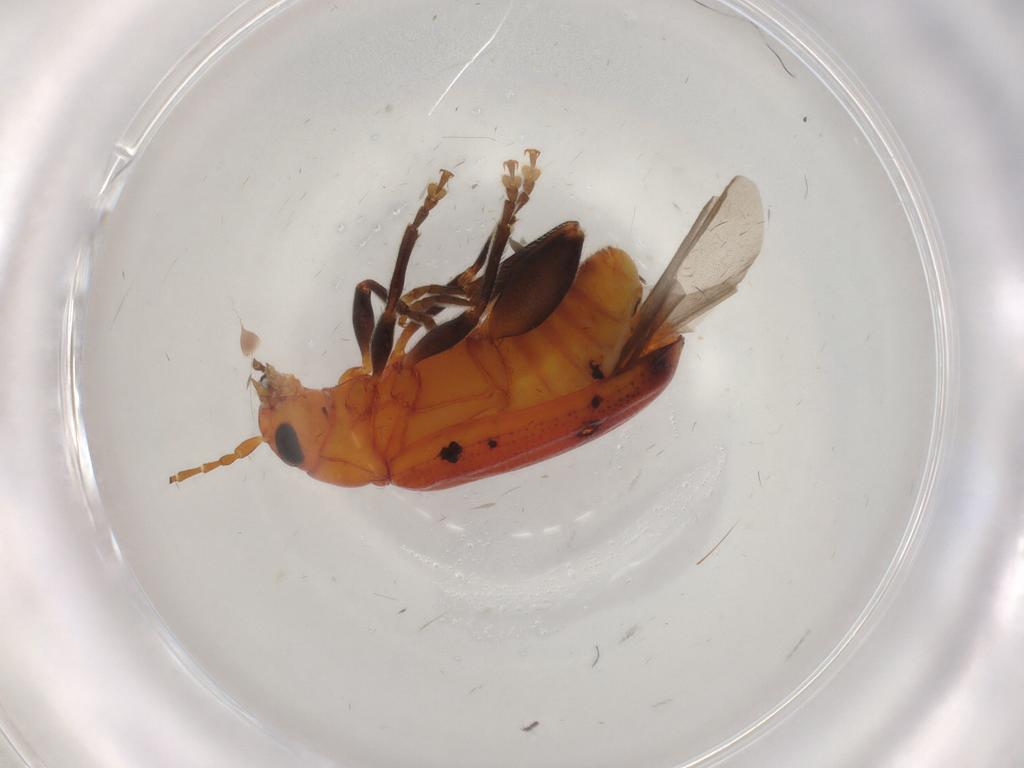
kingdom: Animalia
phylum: Arthropoda
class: Insecta
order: Coleoptera
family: Chrysomelidae
